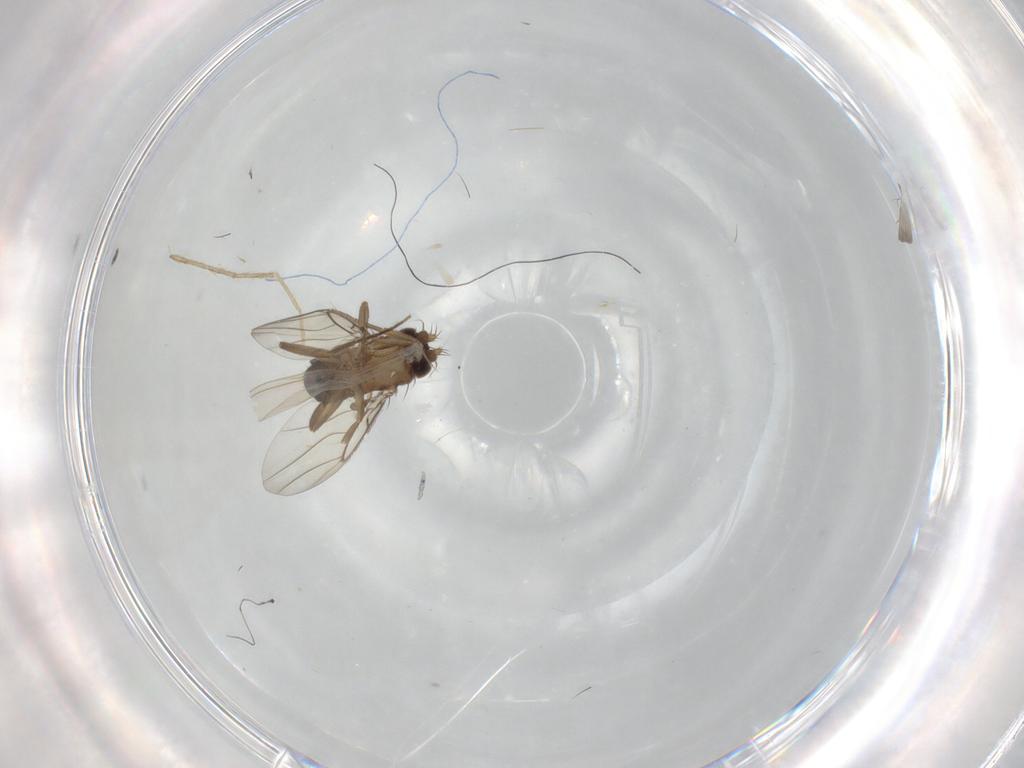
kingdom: Animalia
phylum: Arthropoda
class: Insecta
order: Diptera
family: Phoridae
